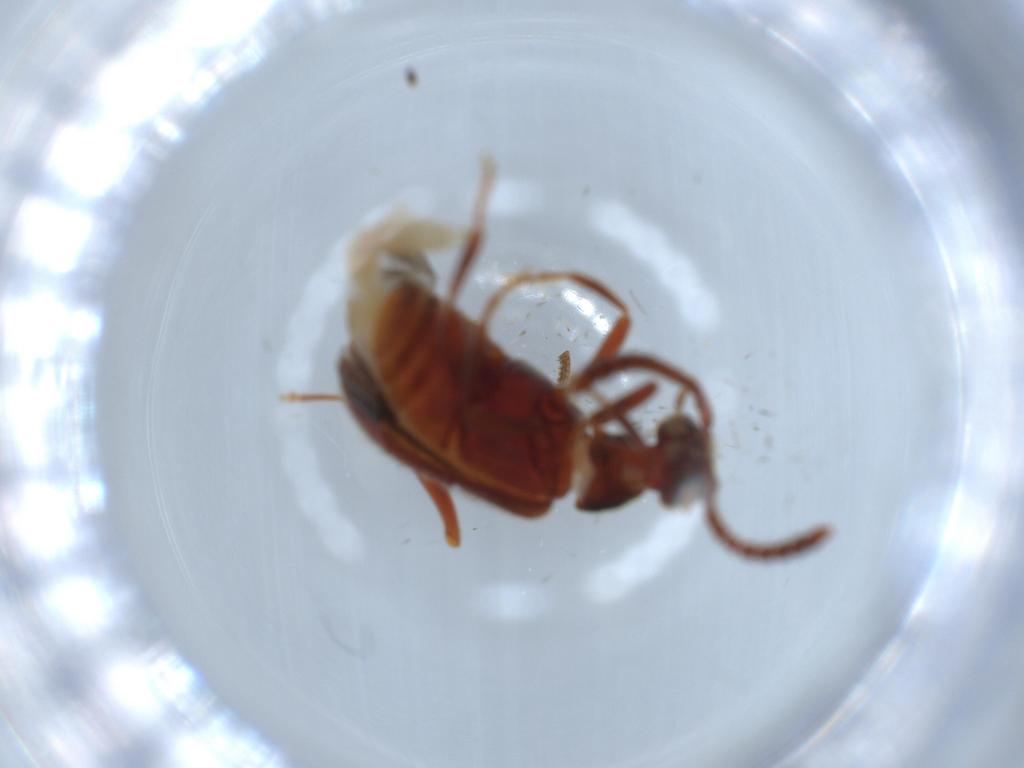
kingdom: Animalia
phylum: Arthropoda
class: Insecta
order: Coleoptera
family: Aderidae
